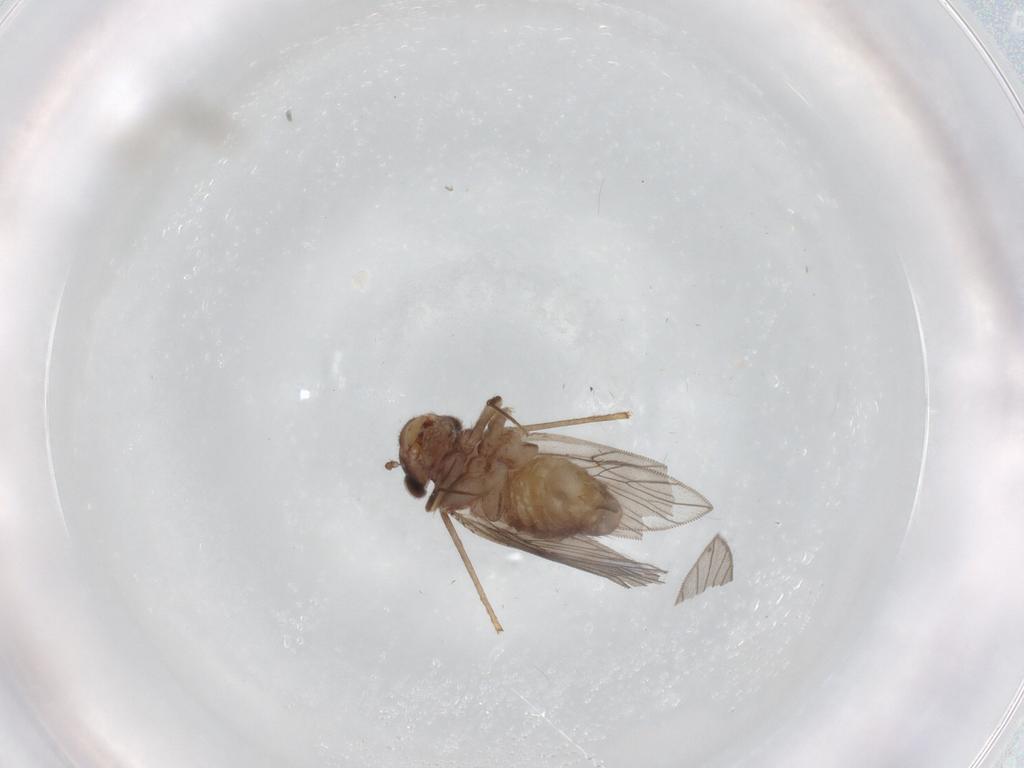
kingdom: Animalia
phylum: Arthropoda
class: Insecta
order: Psocodea
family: Lepidopsocidae
